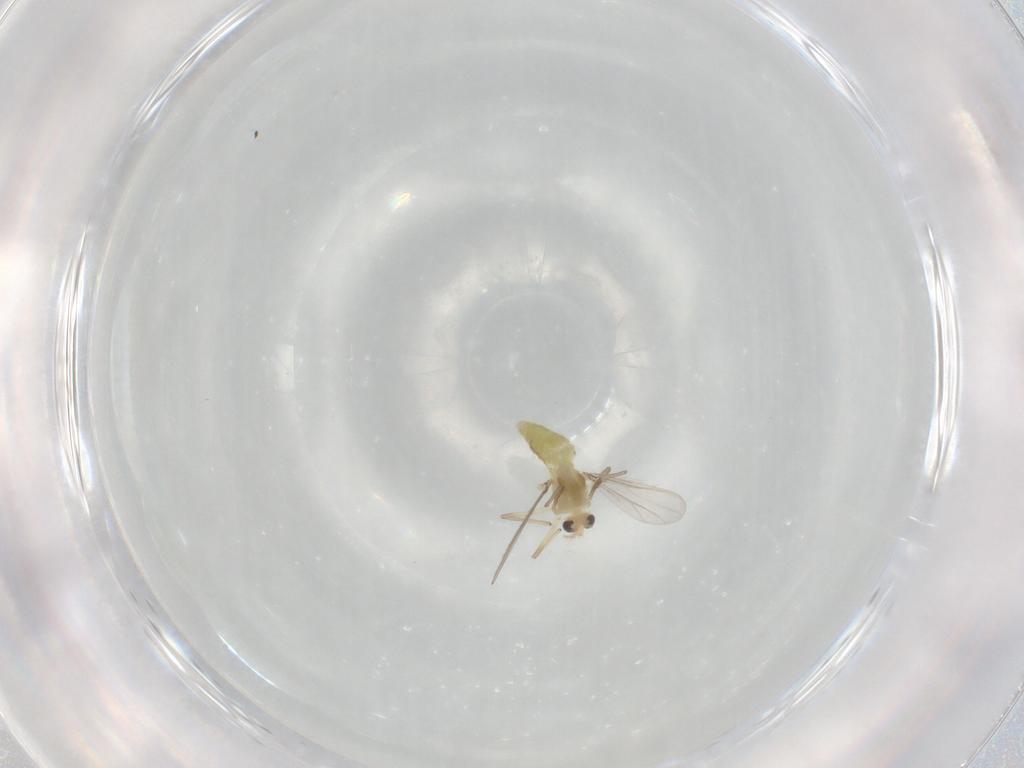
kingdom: Animalia
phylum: Arthropoda
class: Insecta
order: Diptera
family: Chironomidae
